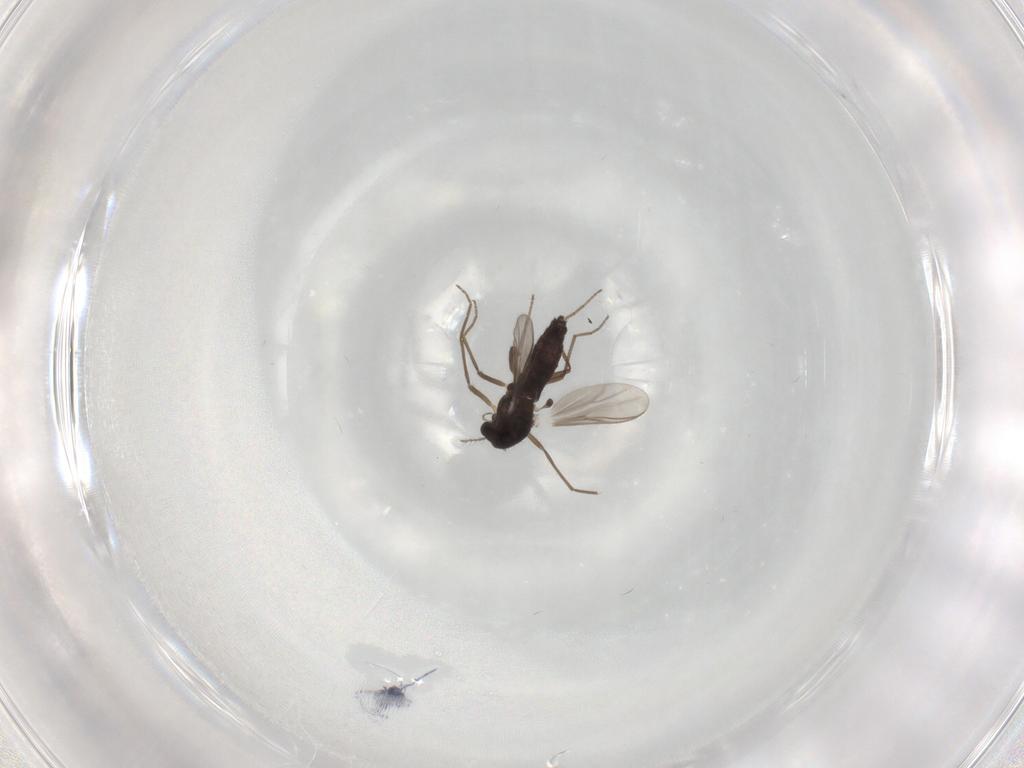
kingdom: Animalia
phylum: Arthropoda
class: Insecta
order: Diptera
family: Chironomidae
